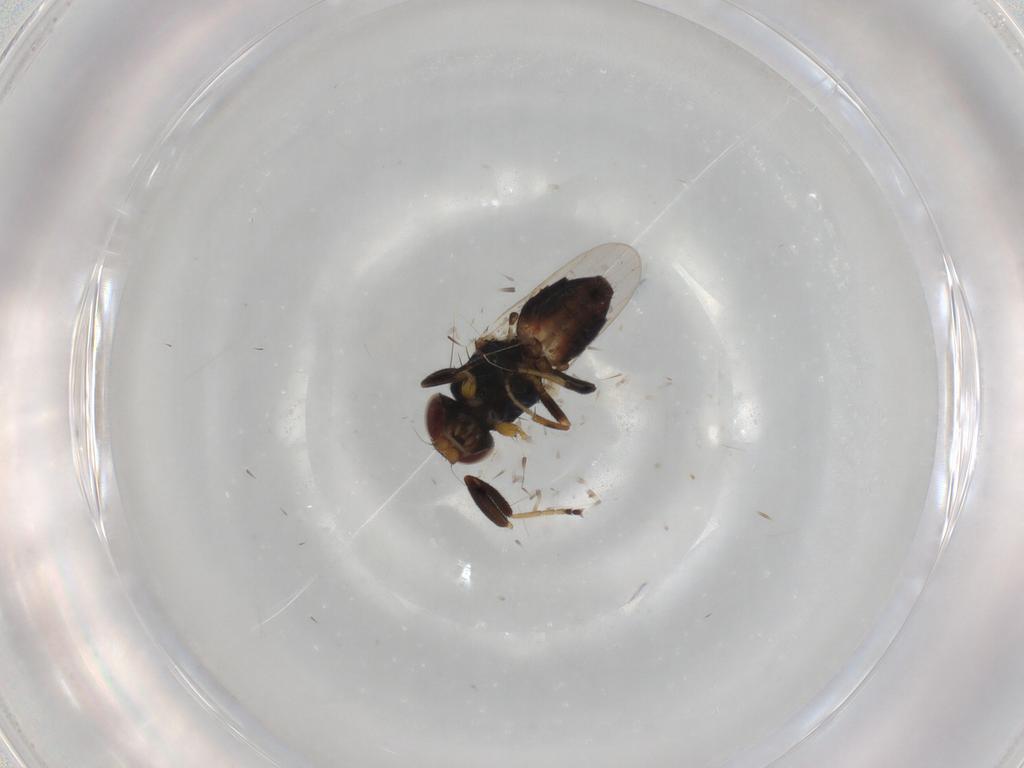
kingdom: Animalia
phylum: Arthropoda
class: Insecta
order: Diptera
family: Chloropidae
